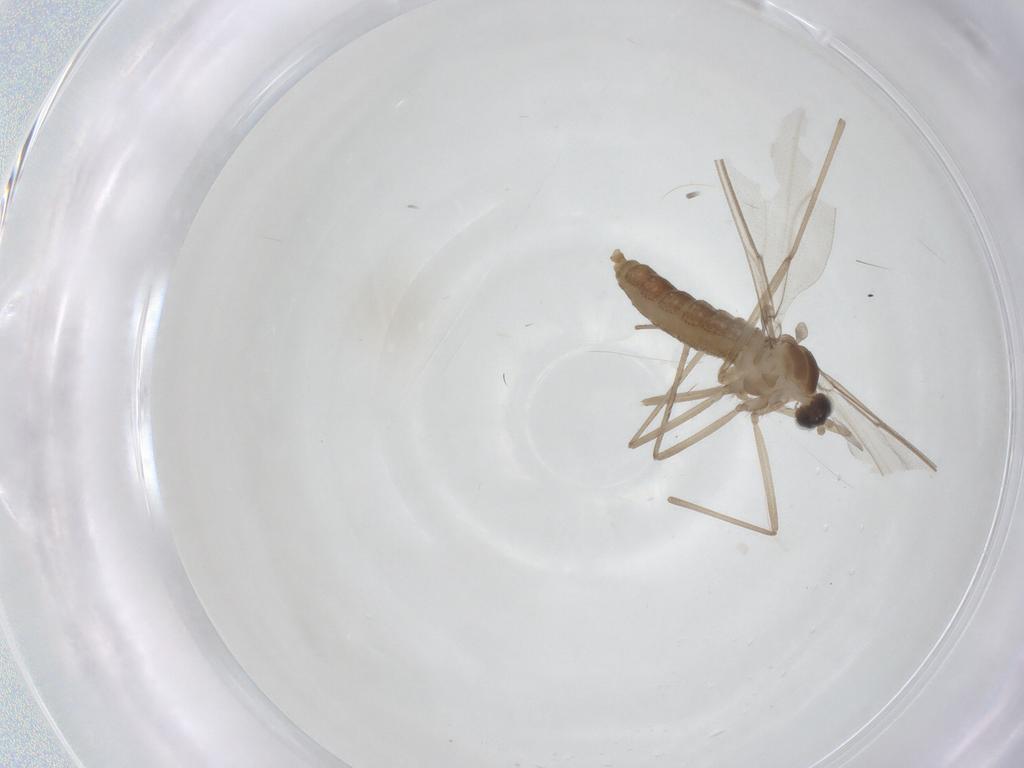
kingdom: Animalia
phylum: Arthropoda
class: Insecta
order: Diptera
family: Cecidomyiidae
